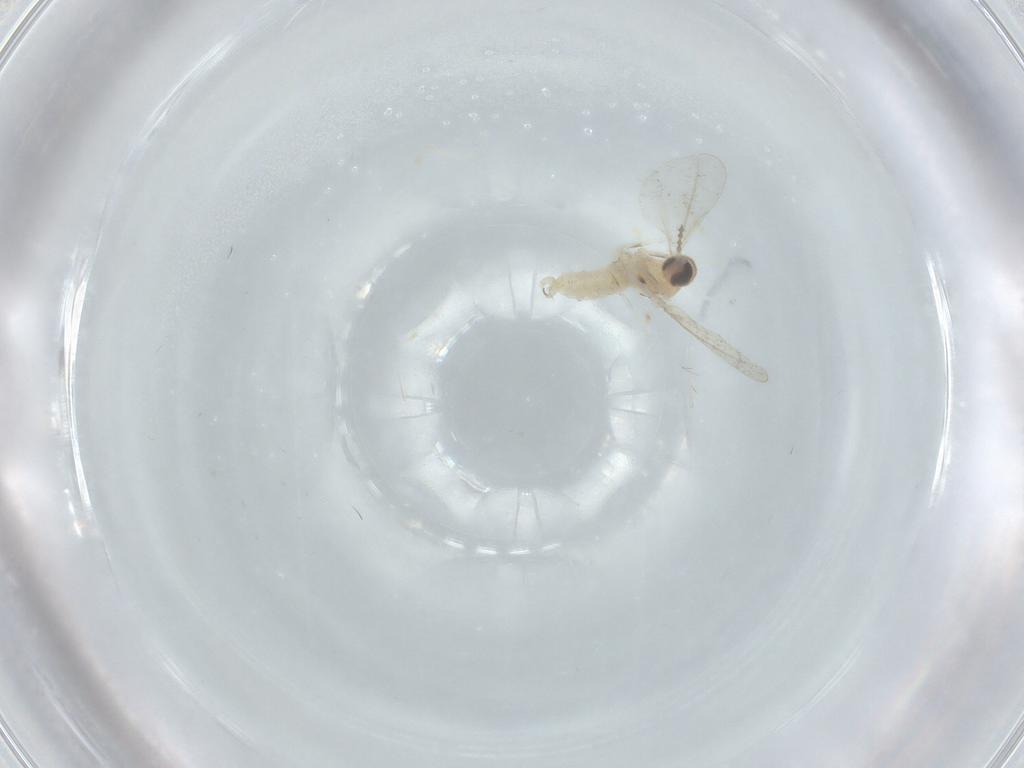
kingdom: Animalia
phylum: Arthropoda
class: Insecta
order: Diptera
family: Cecidomyiidae
